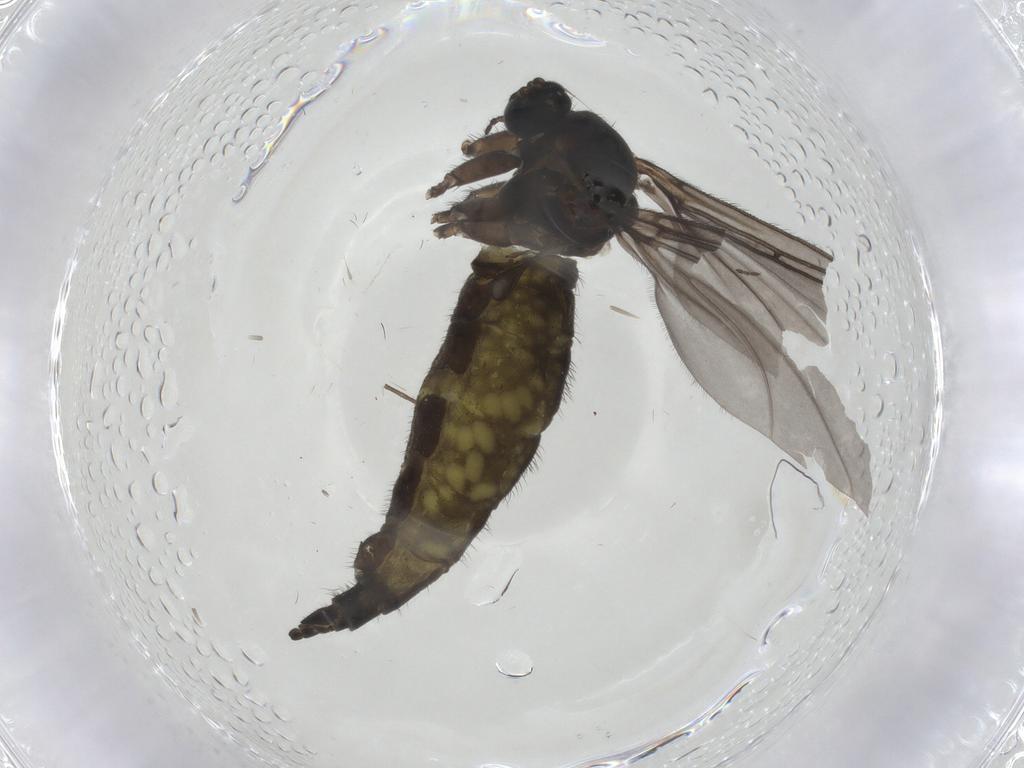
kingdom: Animalia
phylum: Arthropoda
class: Insecta
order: Diptera
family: Sciaridae
